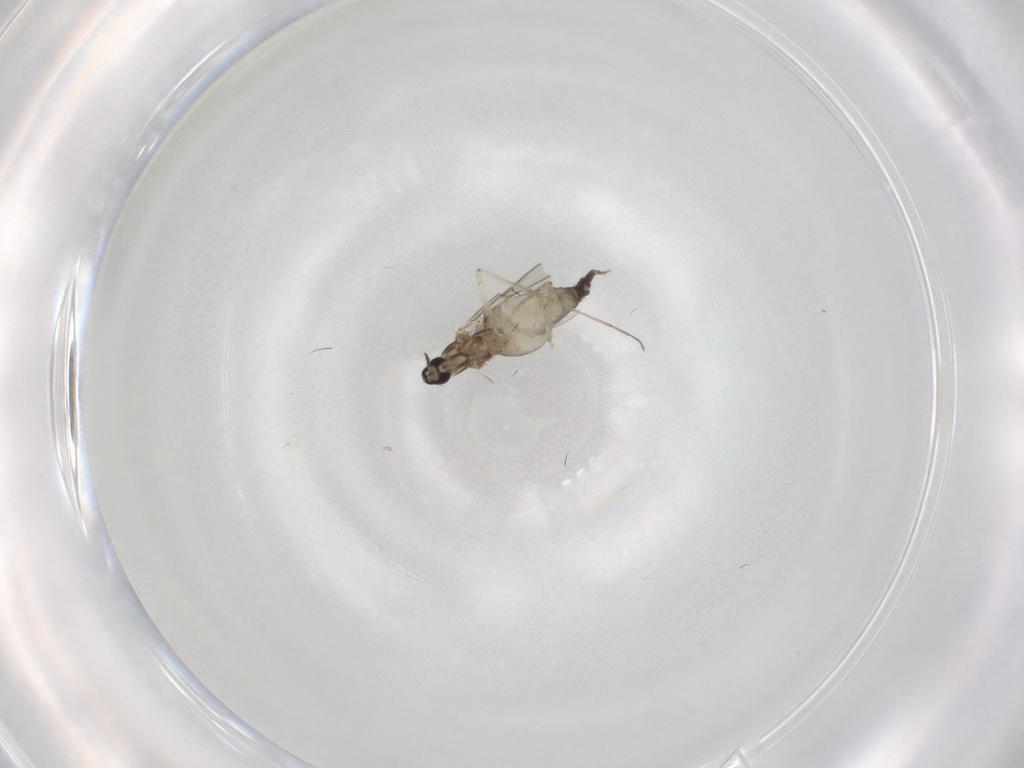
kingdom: Animalia
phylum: Arthropoda
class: Insecta
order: Diptera
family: Cecidomyiidae
